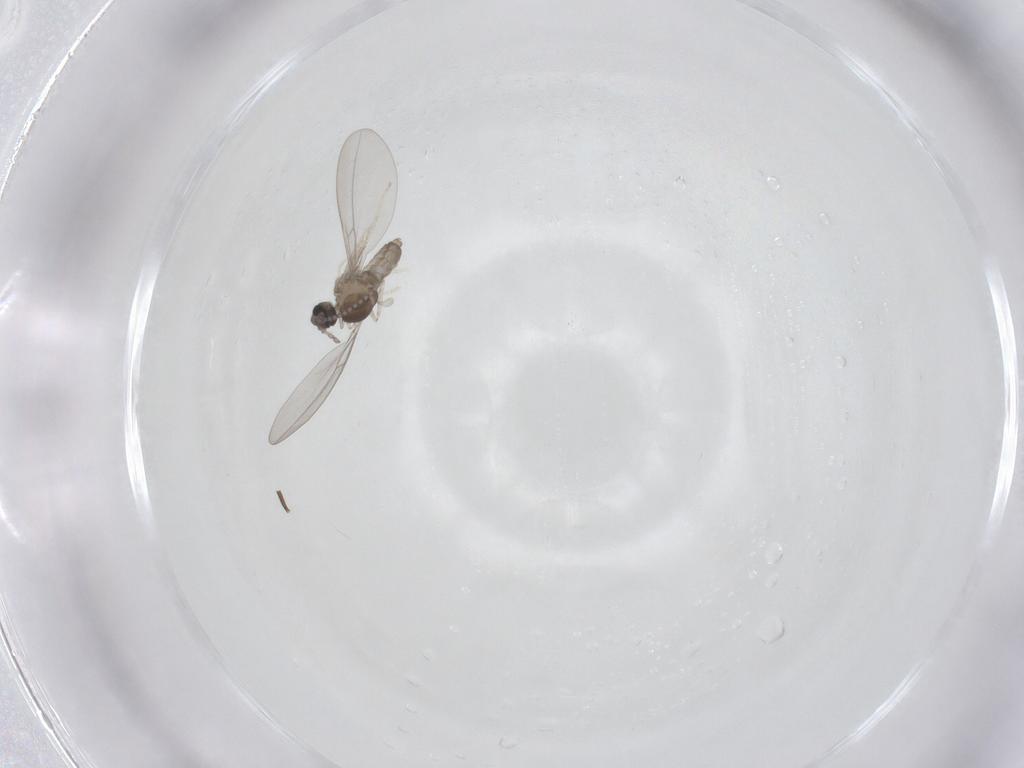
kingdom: Animalia
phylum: Arthropoda
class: Insecta
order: Diptera
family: Cecidomyiidae
